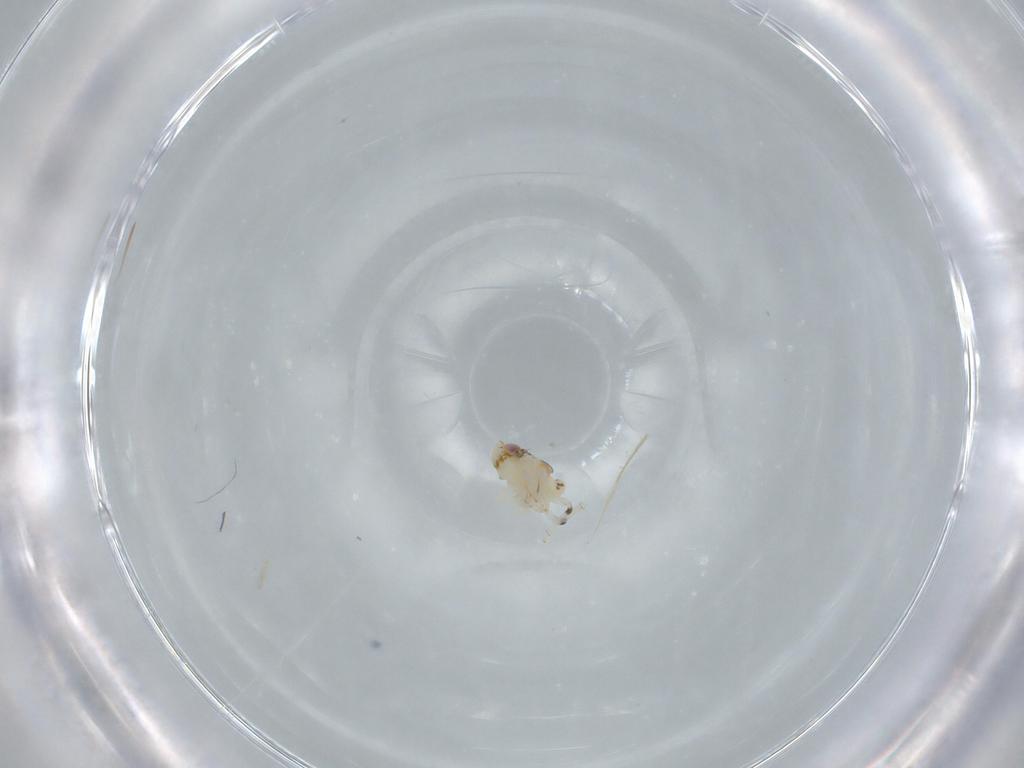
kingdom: Animalia
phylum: Arthropoda
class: Insecta
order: Hemiptera
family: Nogodinidae
